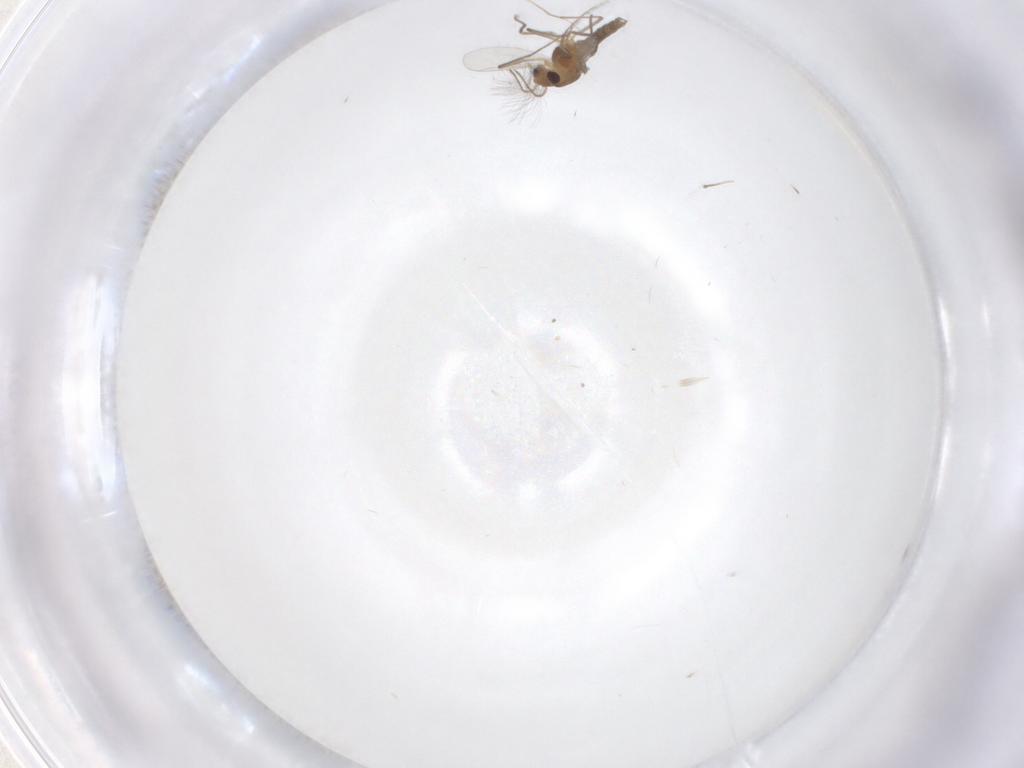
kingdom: Animalia
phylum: Arthropoda
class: Insecta
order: Diptera
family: Chironomidae
